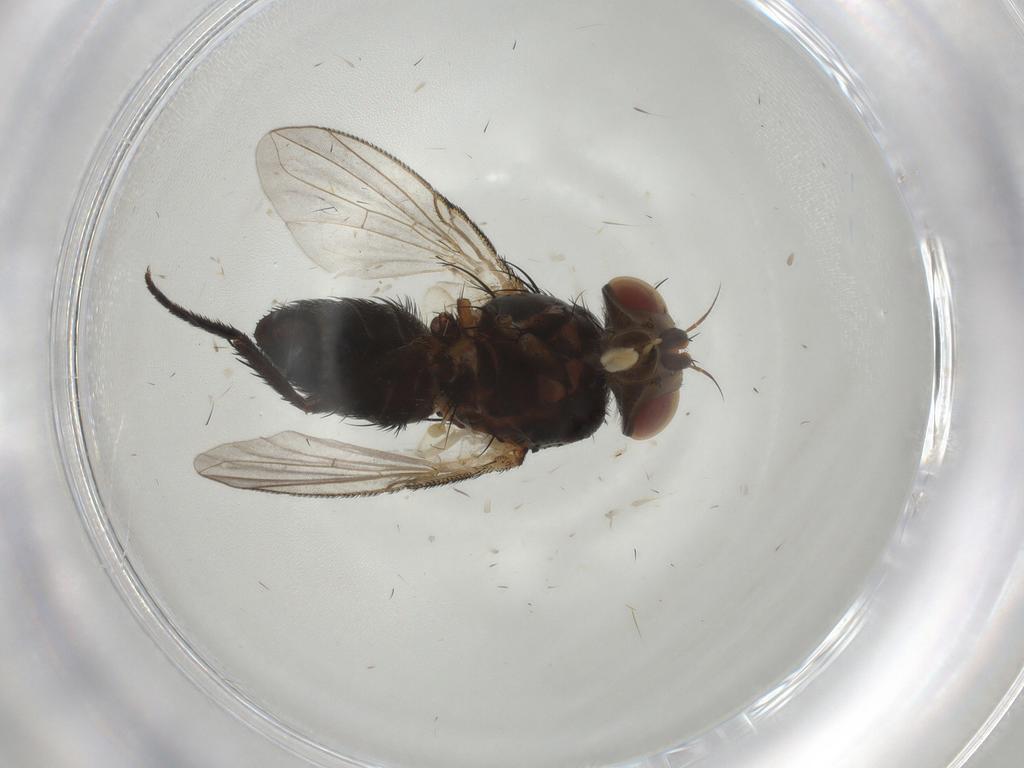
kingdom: Animalia
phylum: Arthropoda
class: Insecta
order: Diptera
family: Tachinidae
